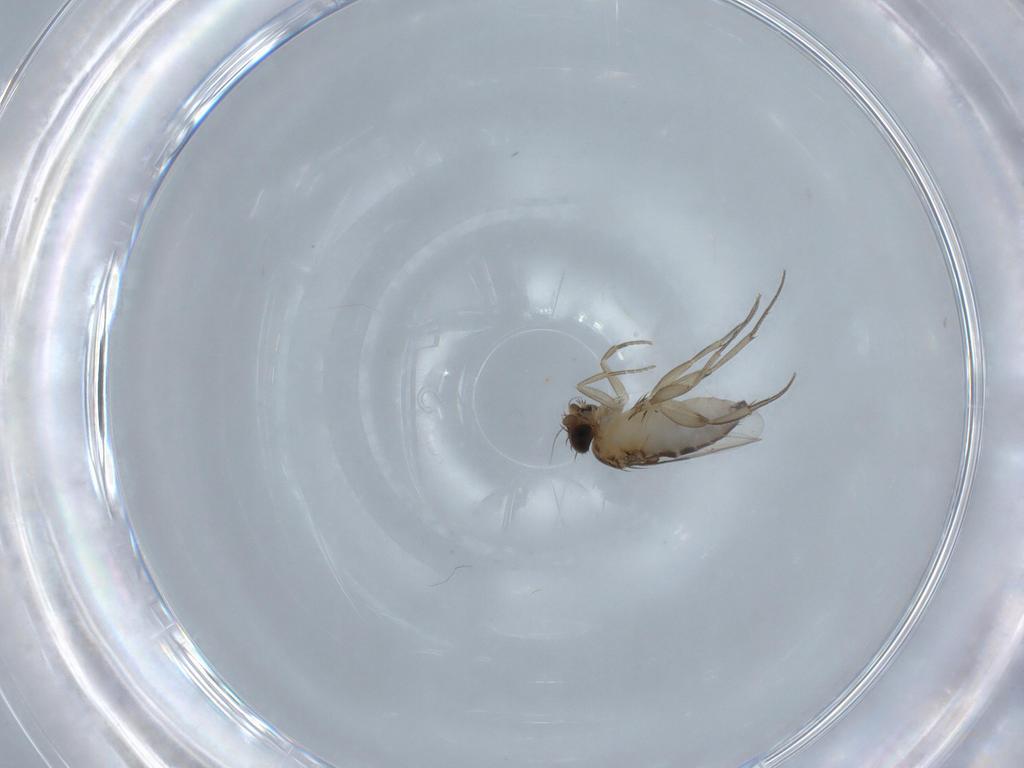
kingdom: Animalia
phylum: Arthropoda
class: Insecta
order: Diptera
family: Phoridae
